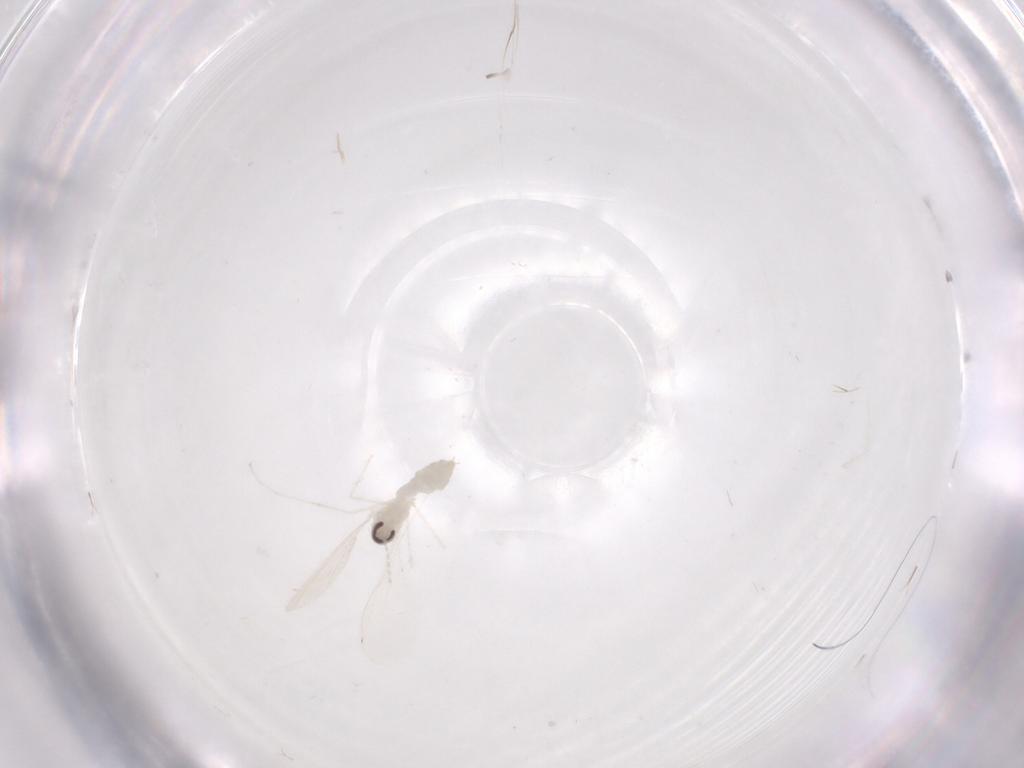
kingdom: Animalia
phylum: Arthropoda
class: Insecta
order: Diptera
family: Cecidomyiidae
